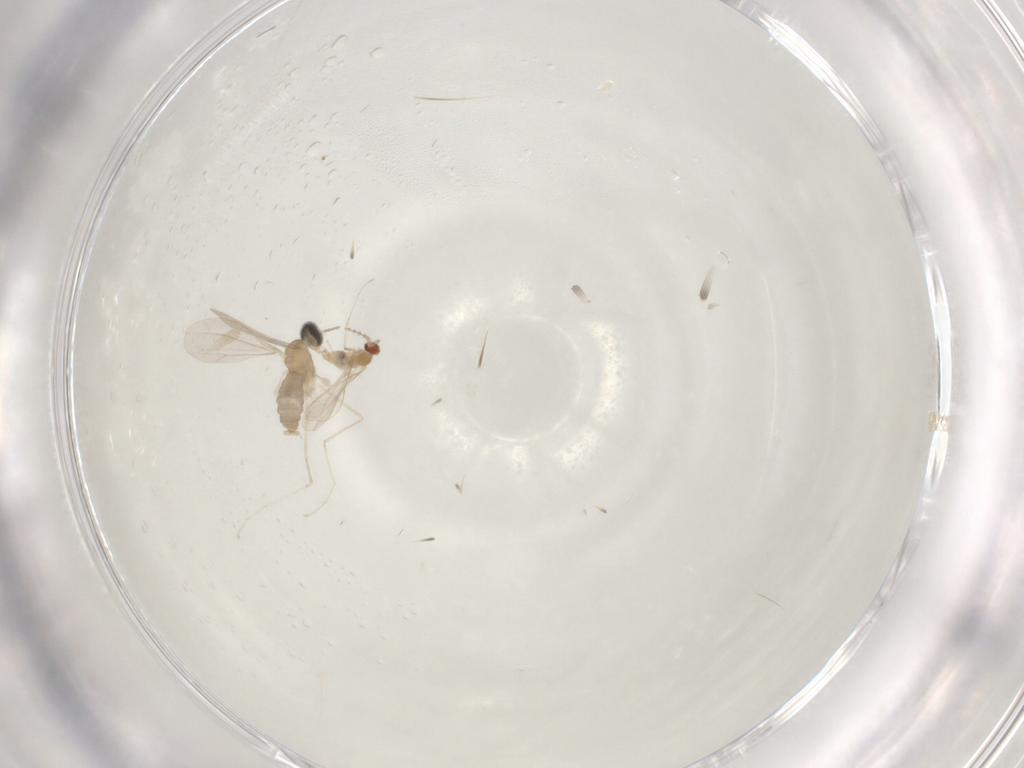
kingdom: Animalia
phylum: Arthropoda
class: Insecta
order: Diptera
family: Cecidomyiidae
